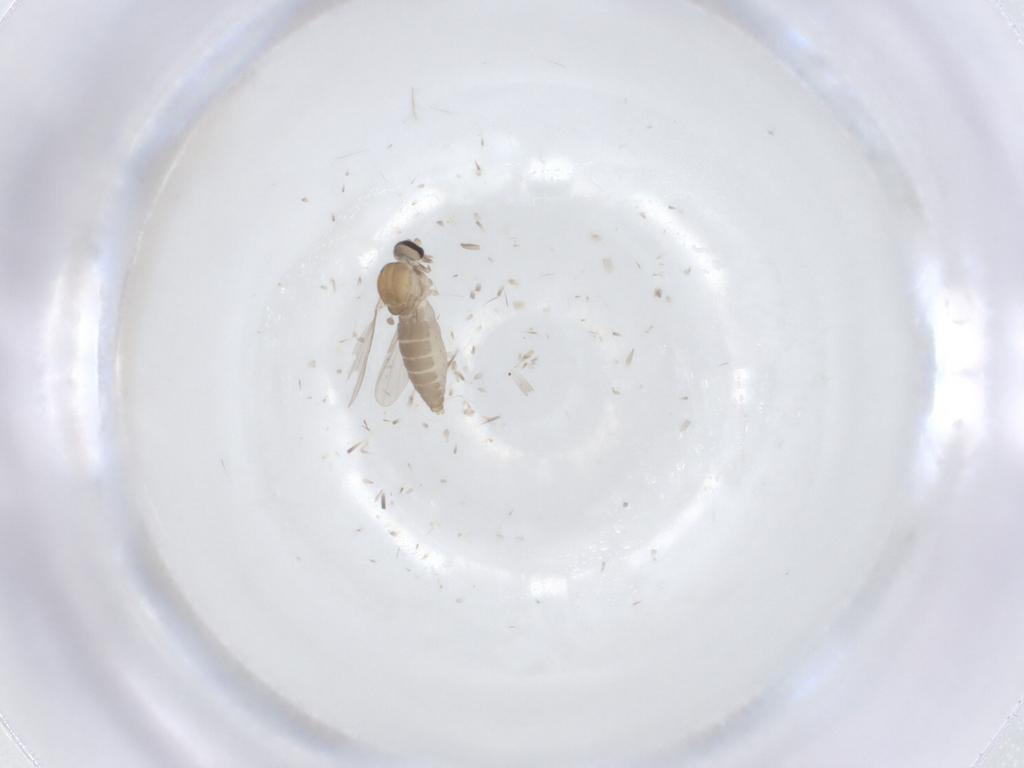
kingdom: Animalia
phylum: Arthropoda
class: Insecta
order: Diptera
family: Ceratopogonidae
